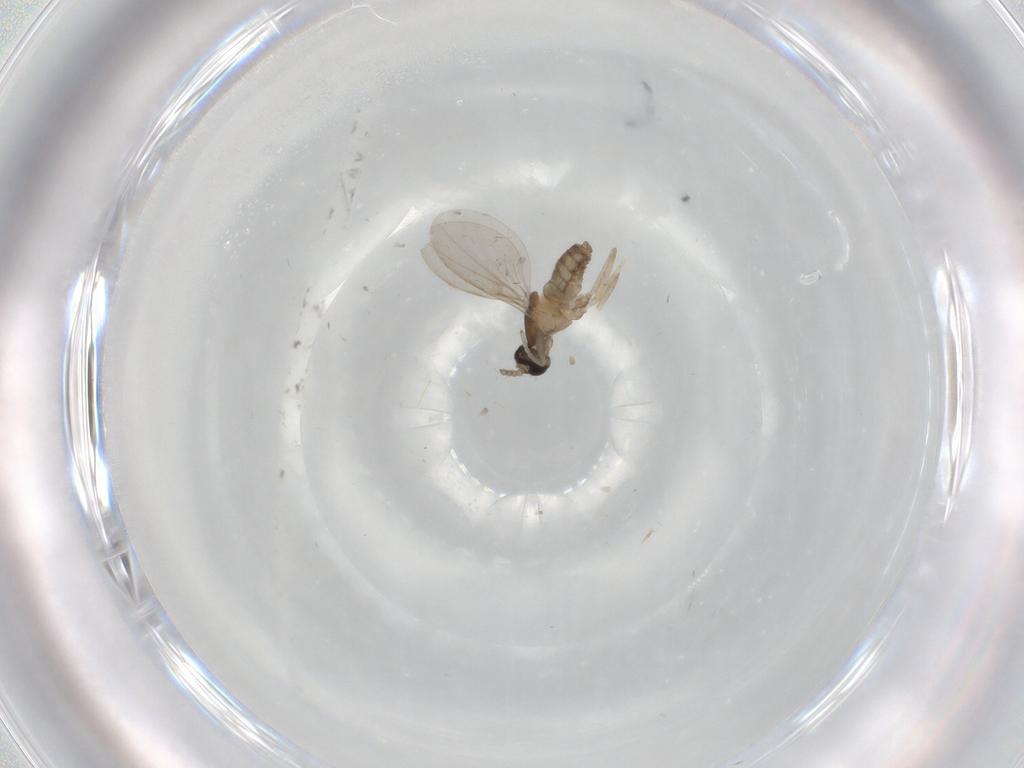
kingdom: Animalia
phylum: Arthropoda
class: Insecta
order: Diptera
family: Cecidomyiidae
